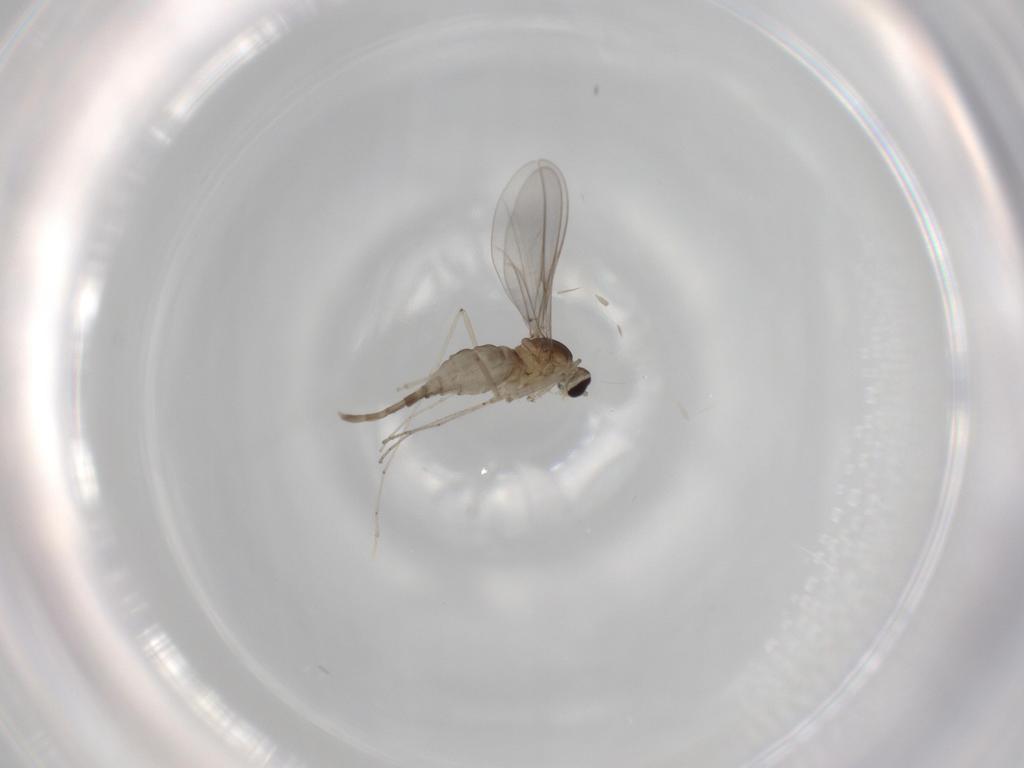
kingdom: Animalia
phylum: Arthropoda
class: Insecta
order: Diptera
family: Cecidomyiidae
